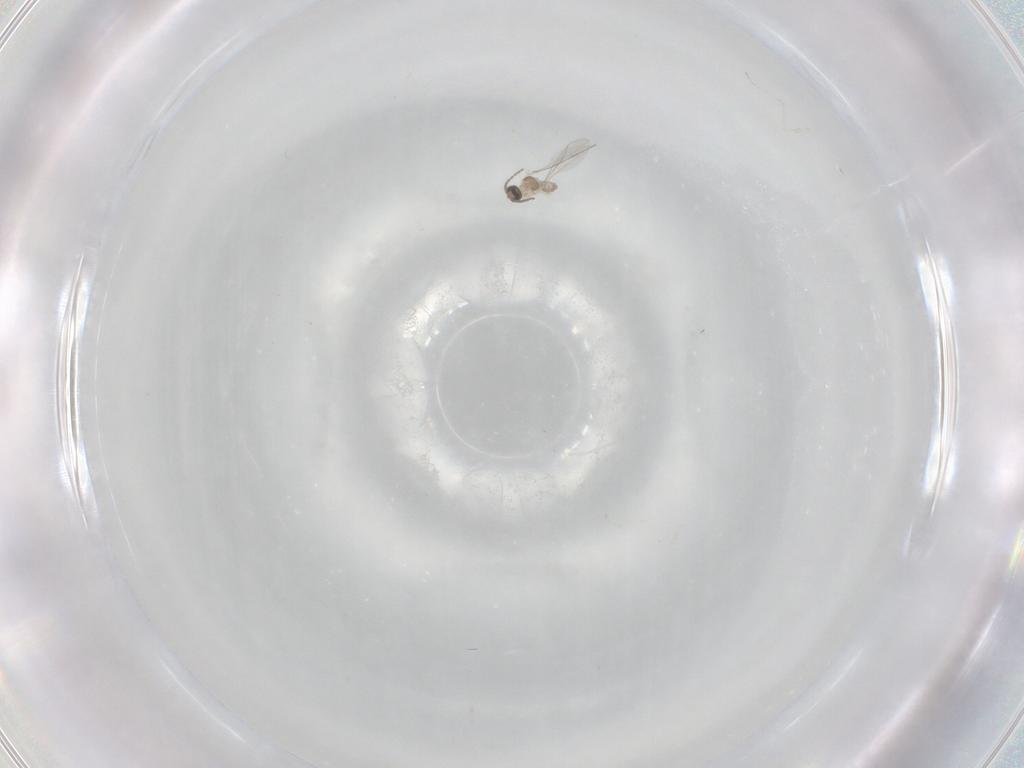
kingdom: Animalia
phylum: Arthropoda
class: Insecta
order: Diptera
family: Cecidomyiidae
